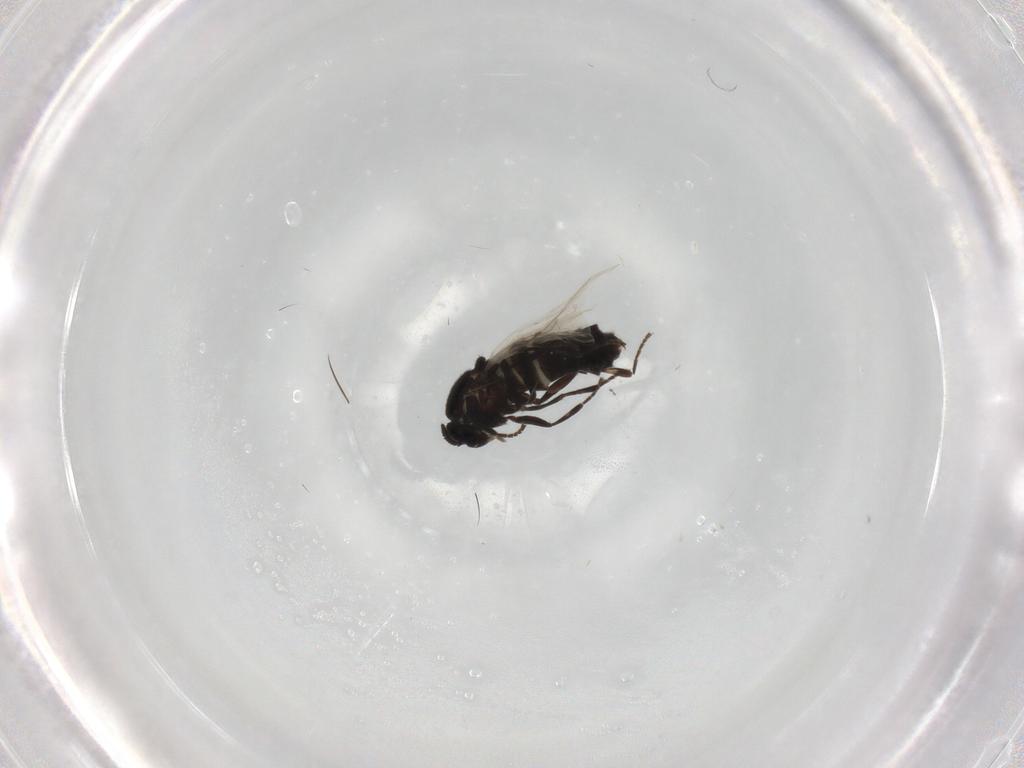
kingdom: Animalia
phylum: Arthropoda
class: Insecta
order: Diptera
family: Scatopsidae
